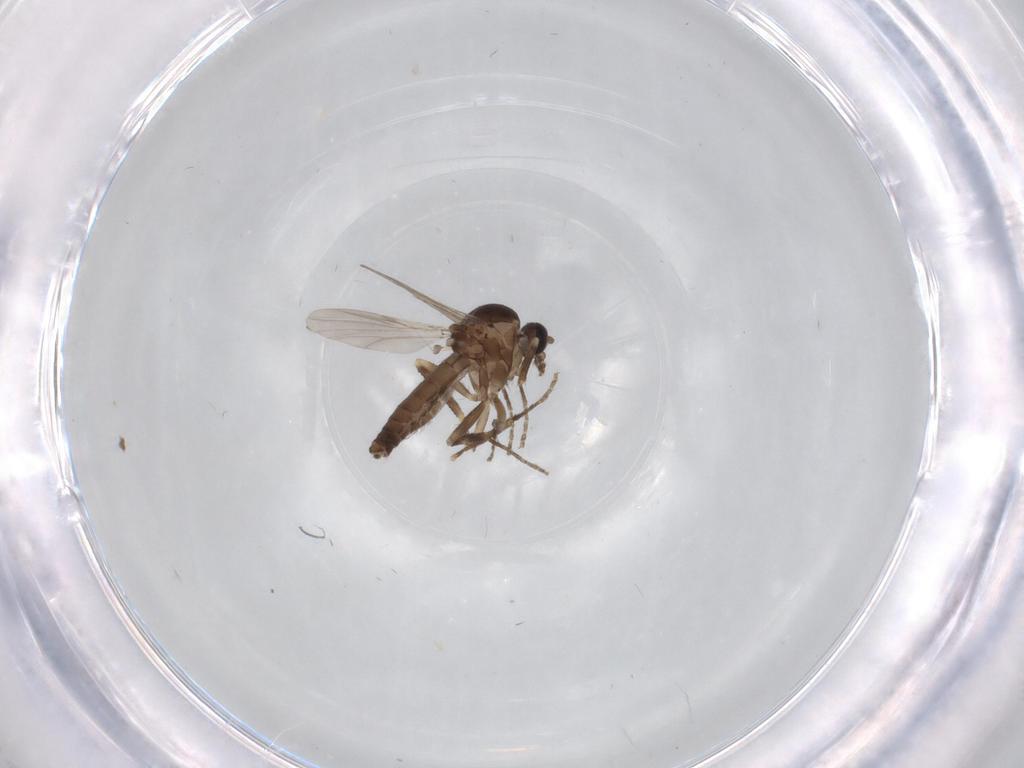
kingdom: Animalia
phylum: Arthropoda
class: Insecta
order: Diptera
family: Ceratopogonidae
